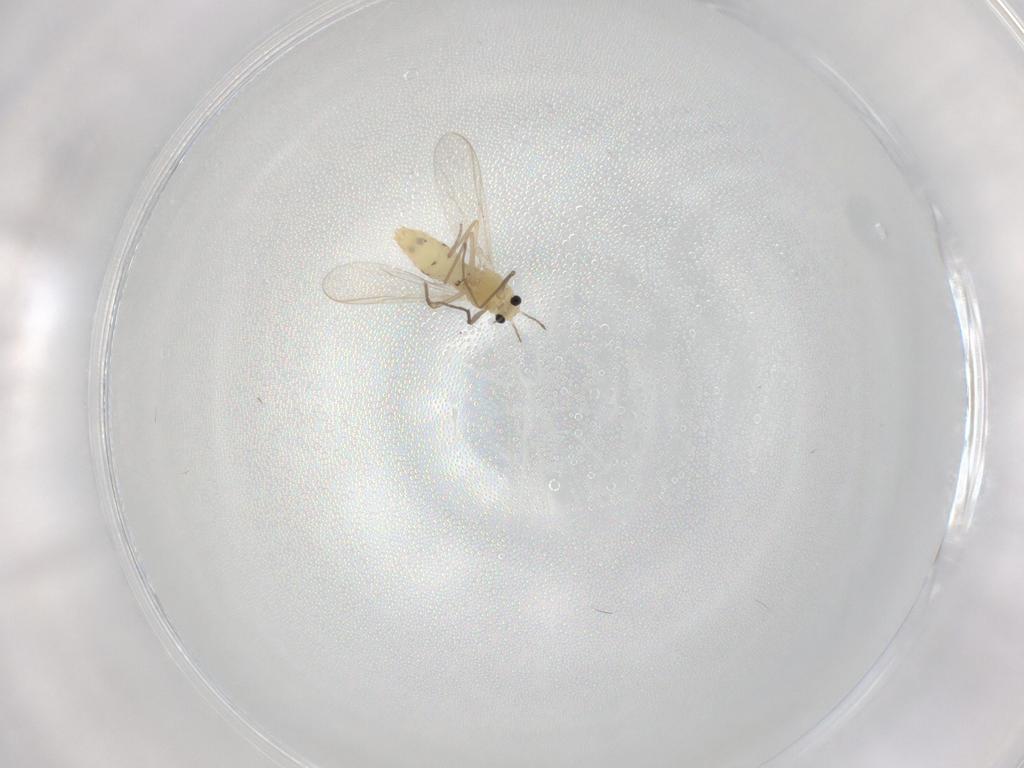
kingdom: Animalia
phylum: Arthropoda
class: Insecta
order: Diptera
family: Chironomidae
